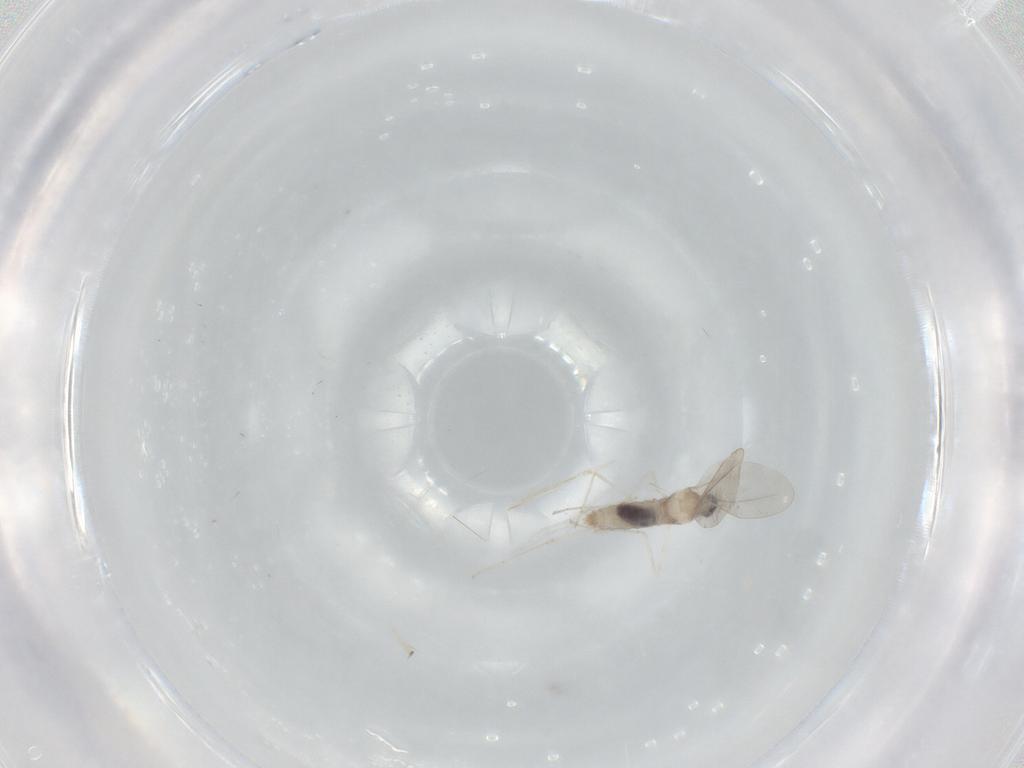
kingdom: Animalia
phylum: Arthropoda
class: Insecta
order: Diptera
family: Phoridae
